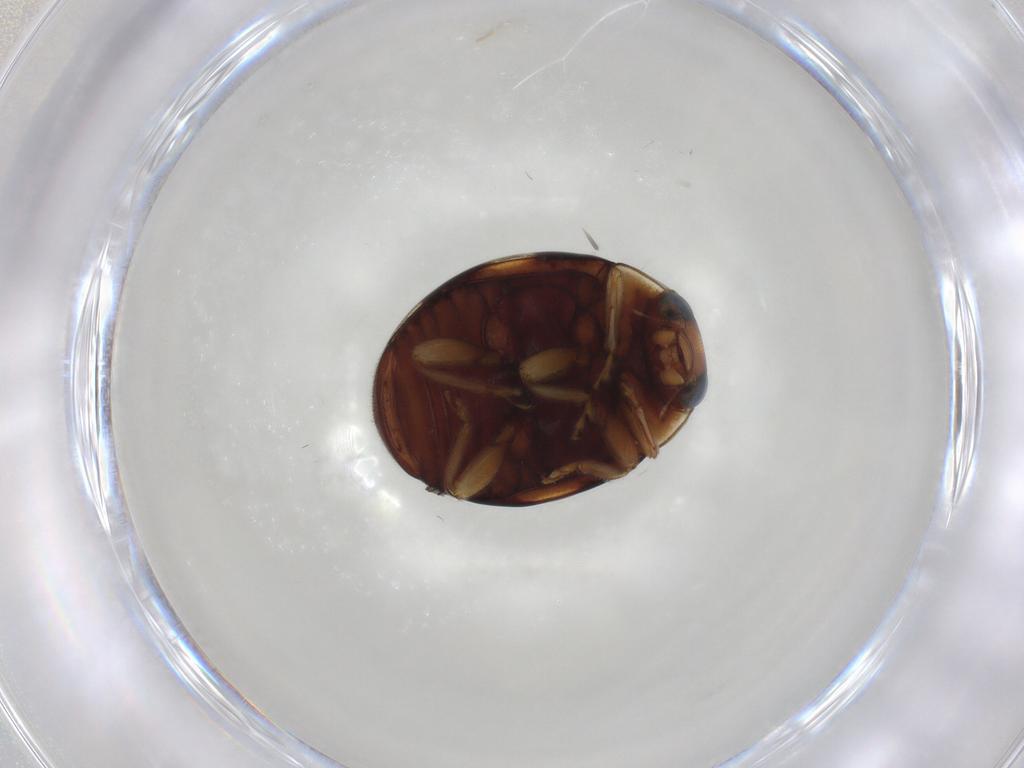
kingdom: Animalia
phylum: Arthropoda
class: Insecta
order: Coleoptera
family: Coccinellidae
